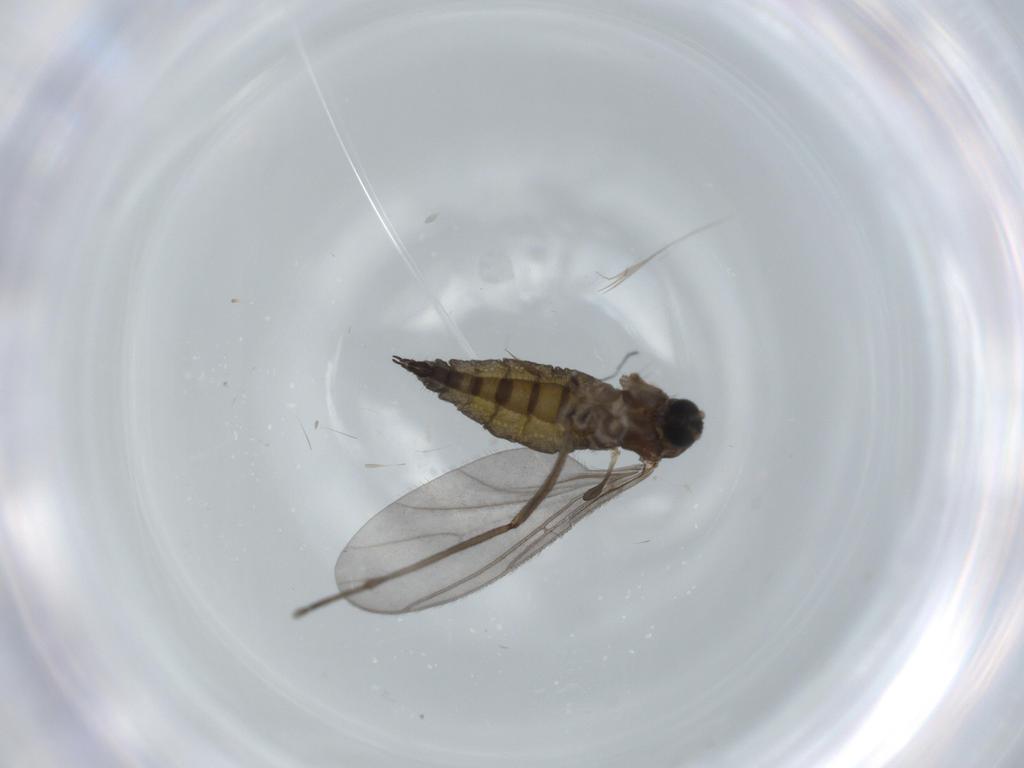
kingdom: Animalia
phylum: Arthropoda
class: Insecta
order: Diptera
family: Sciaridae
